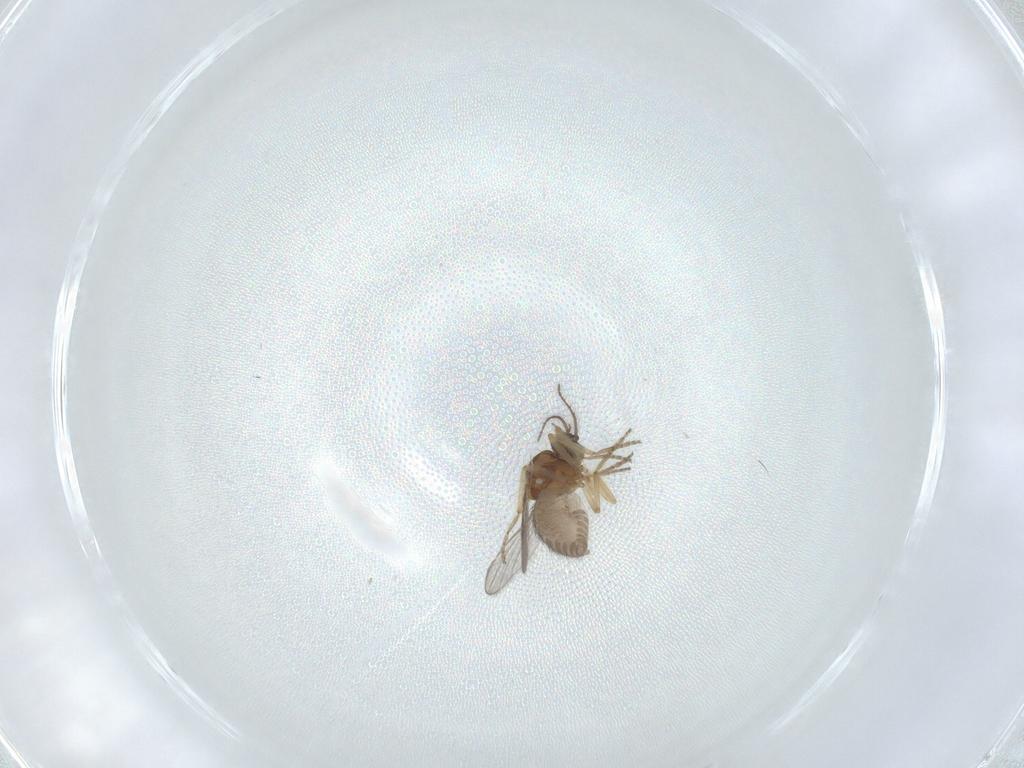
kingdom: Animalia
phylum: Arthropoda
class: Insecta
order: Diptera
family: Ceratopogonidae
